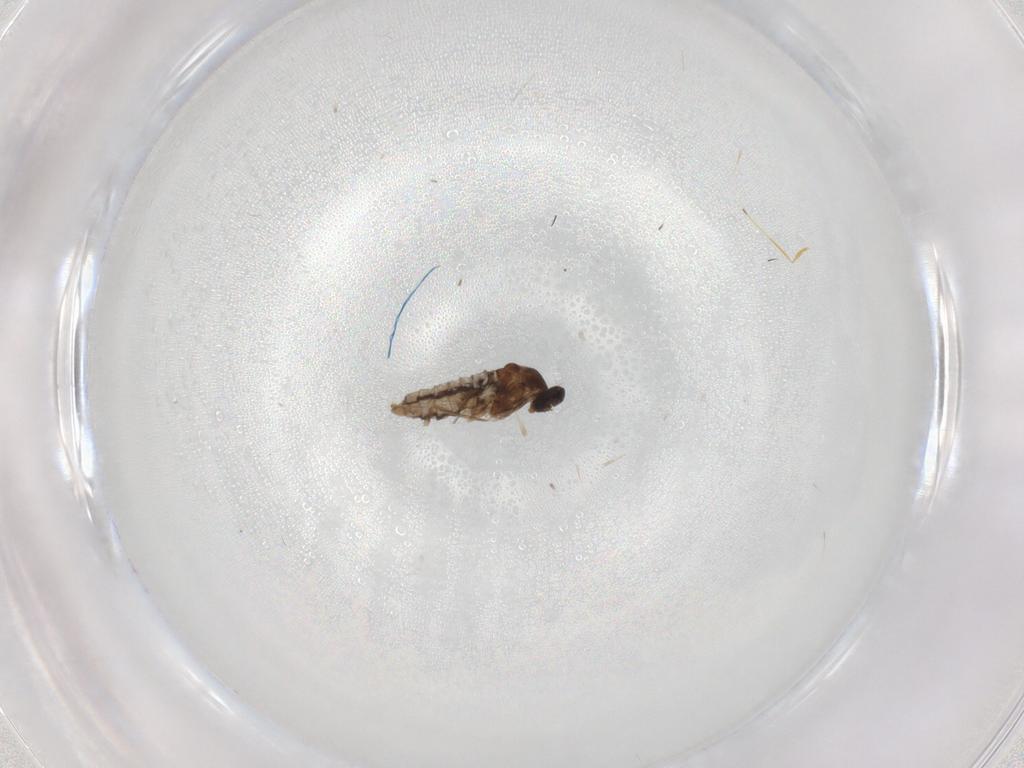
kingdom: Animalia
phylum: Arthropoda
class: Insecta
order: Diptera
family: Cecidomyiidae
